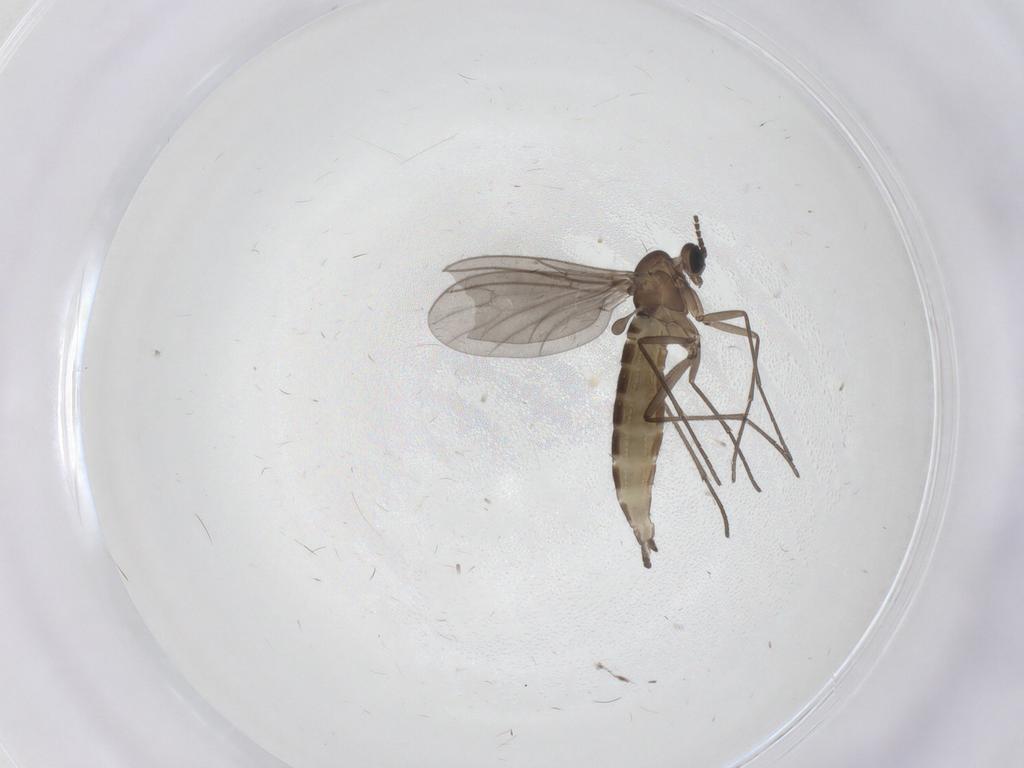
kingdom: Animalia
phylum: Arthropoda
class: Insecta
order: Diptera
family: Sciaridae
